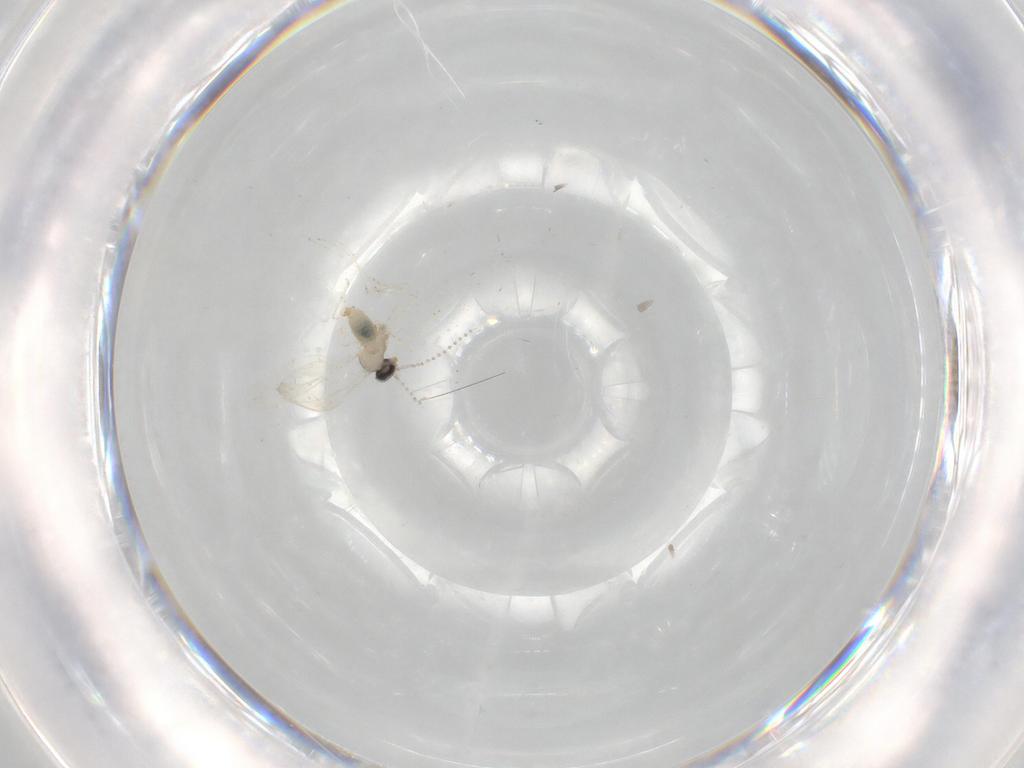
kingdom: Animalia
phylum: Arthropoda
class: Insecta
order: Diptera
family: Cecidomyiidae
